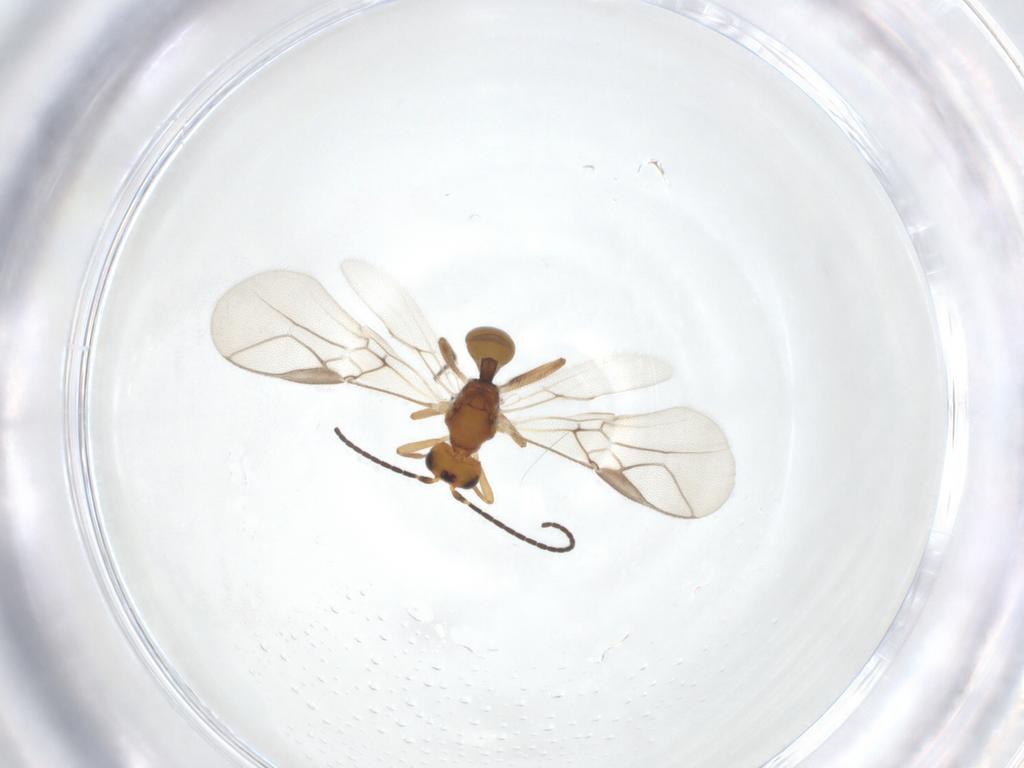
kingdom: Animalia
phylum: Arthropoda
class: Insecta
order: Hymenoptera
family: Braconidae
